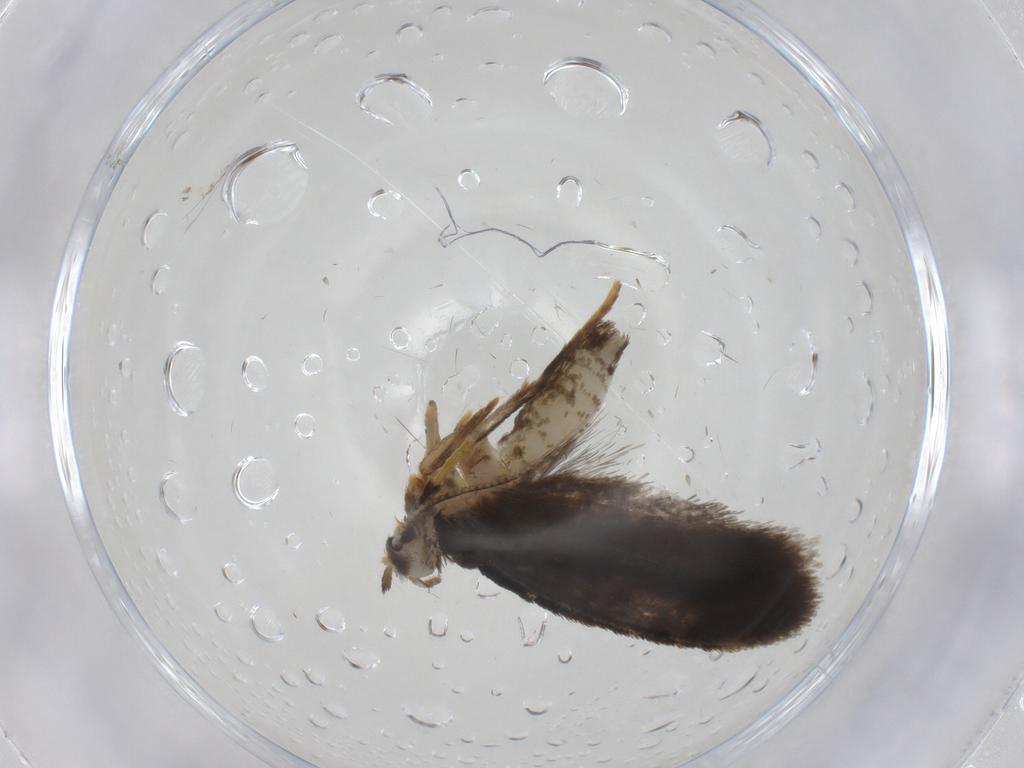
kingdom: Animalia
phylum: Arthropoda
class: Insecta
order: Lepidoptera
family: Psychidae
